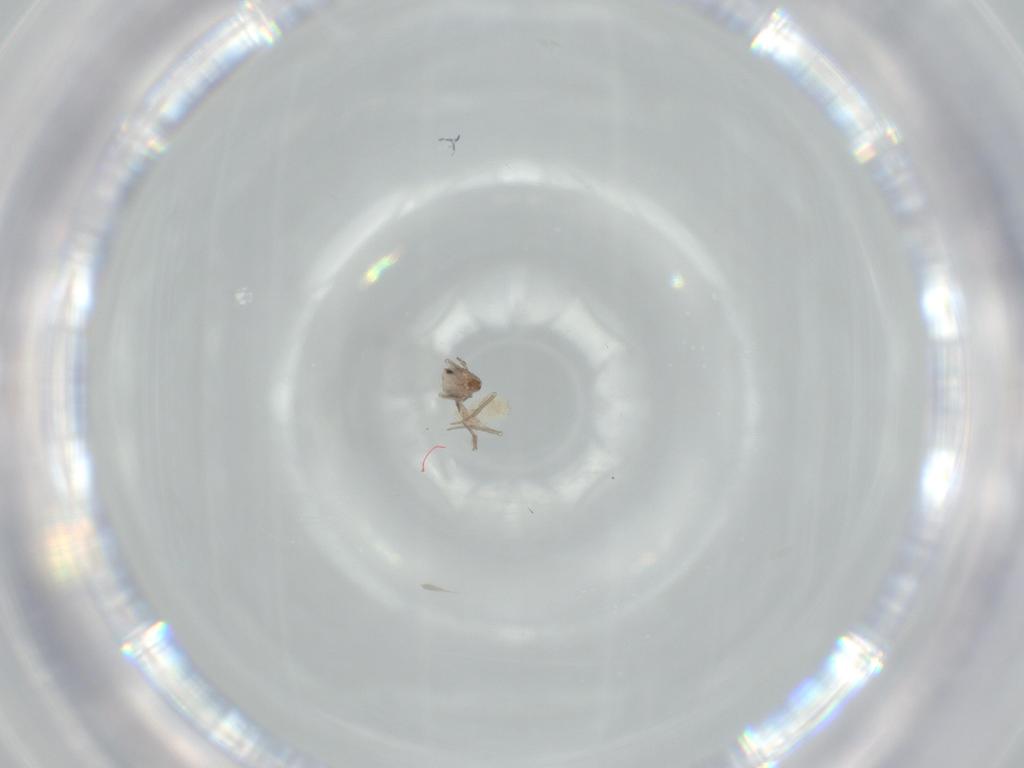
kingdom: Animalia
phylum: Arthropoda
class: Insecta
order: Psocodea
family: Lepidopsocidae
